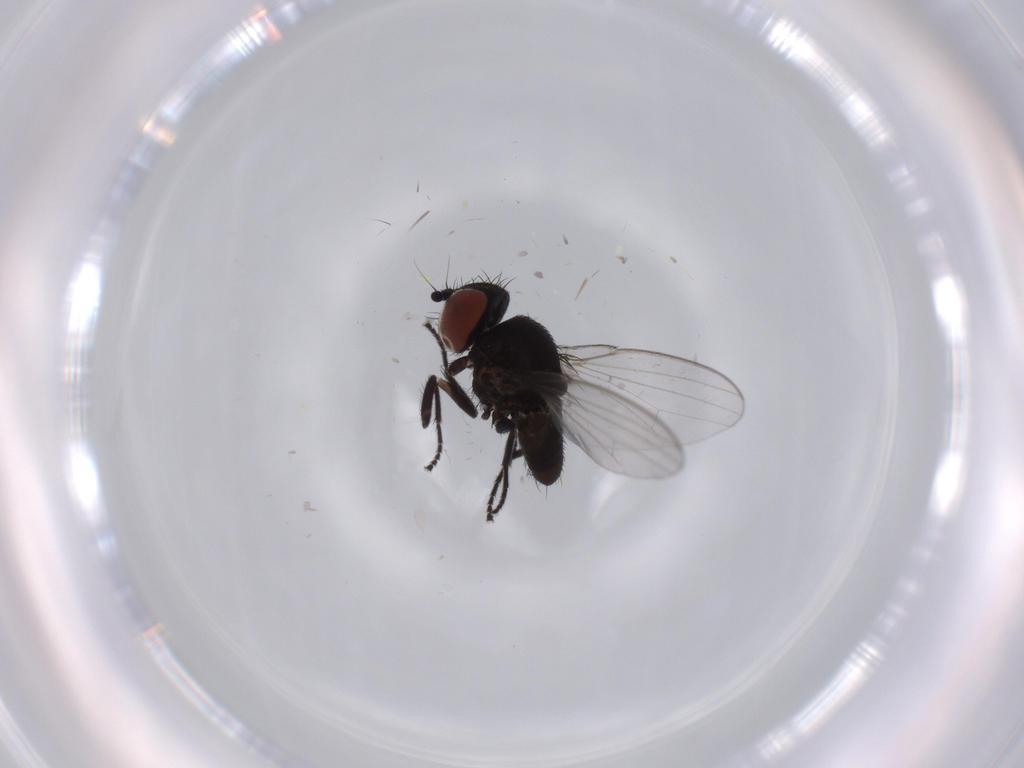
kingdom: Animalia
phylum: Arthropoda
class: Insecta
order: Diptera
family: Milichiidae
